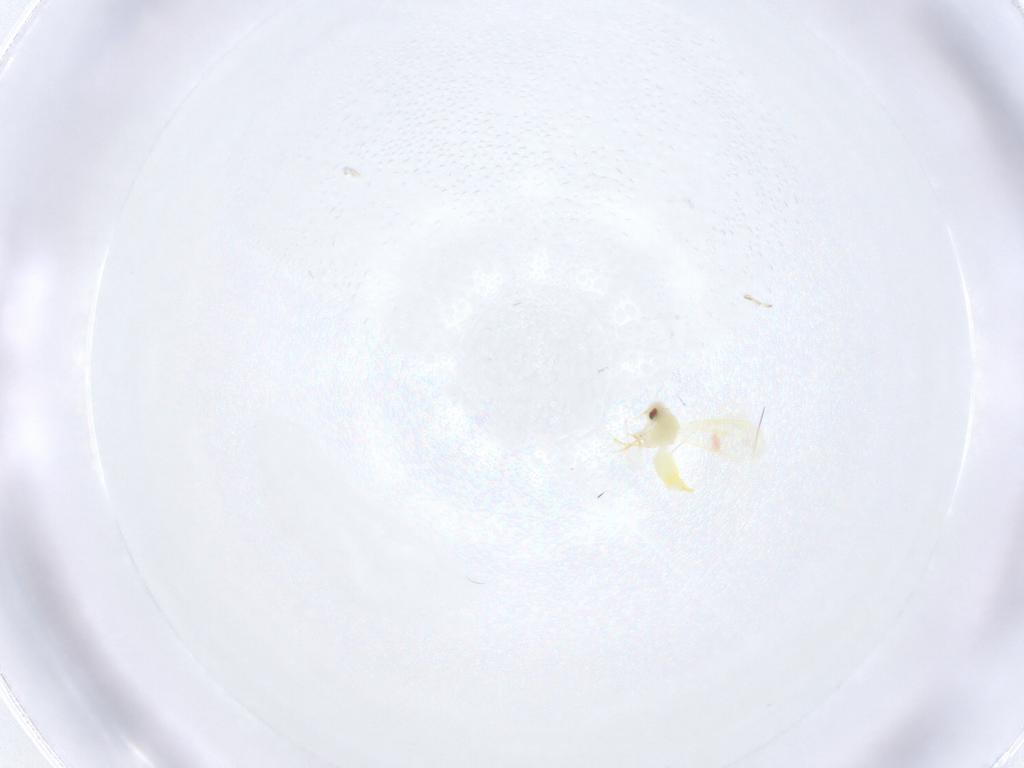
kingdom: Animalia
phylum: Arthropoda
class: Insecta
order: Hemiptera
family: Aleyrodidae
